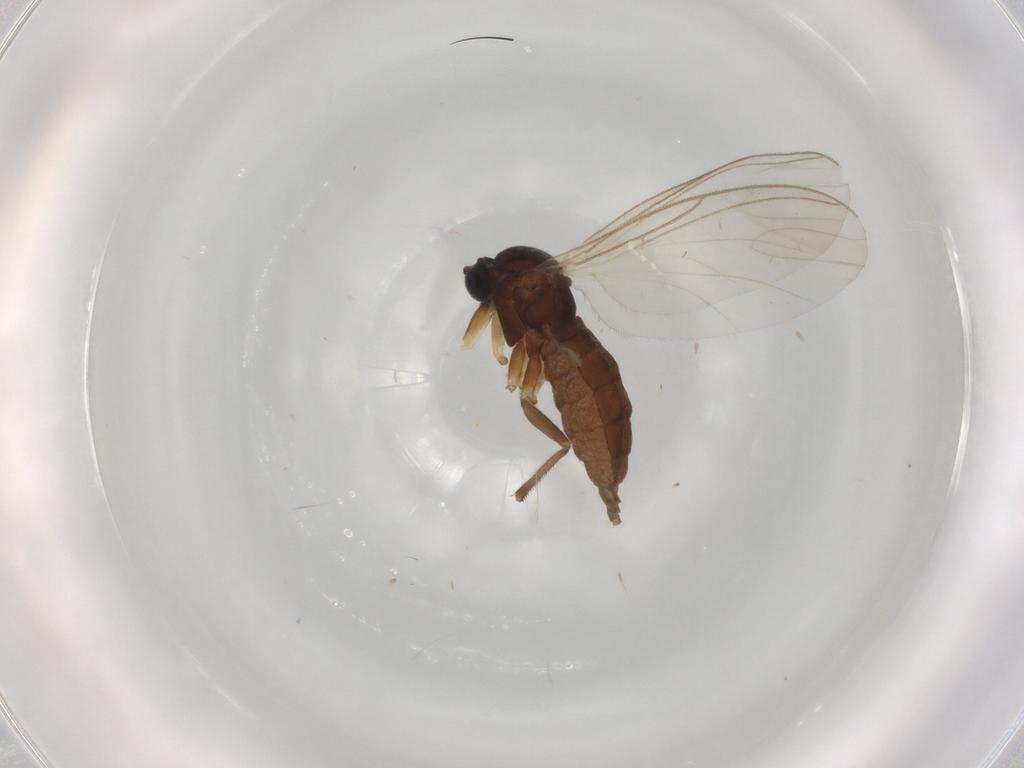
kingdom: Animalia
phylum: Arthropoda
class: Insecta
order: Diptera
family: Chloropidae
